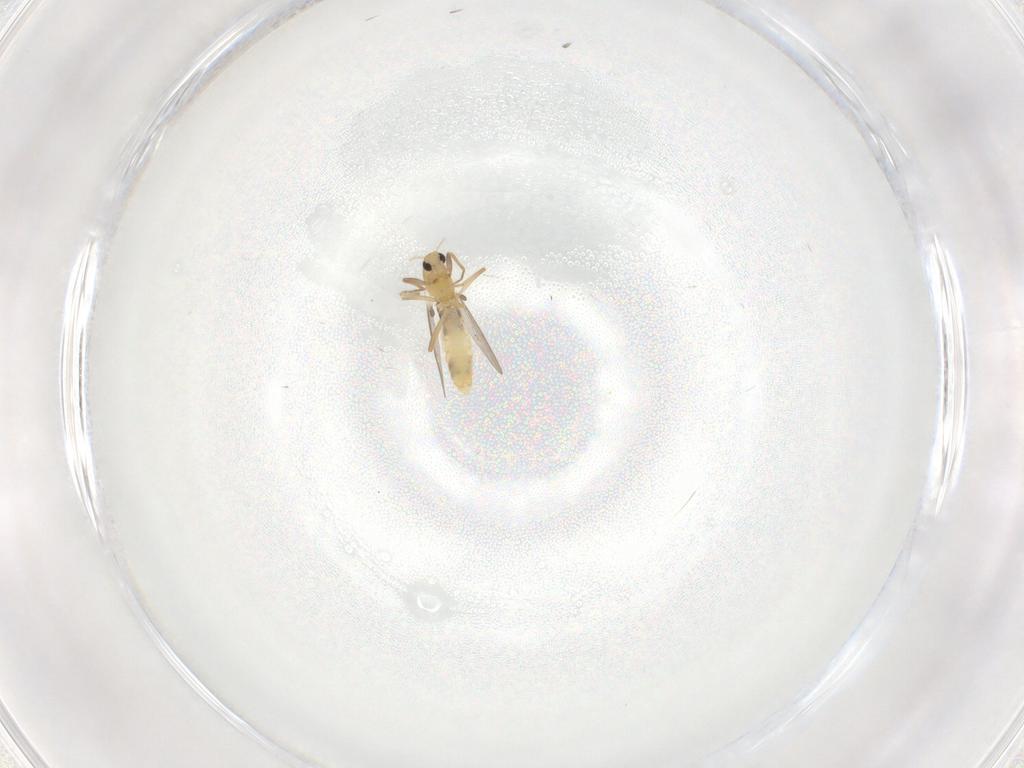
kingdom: Animalia
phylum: Arthropoda
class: Insecta
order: Diptera
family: Chironomidae
